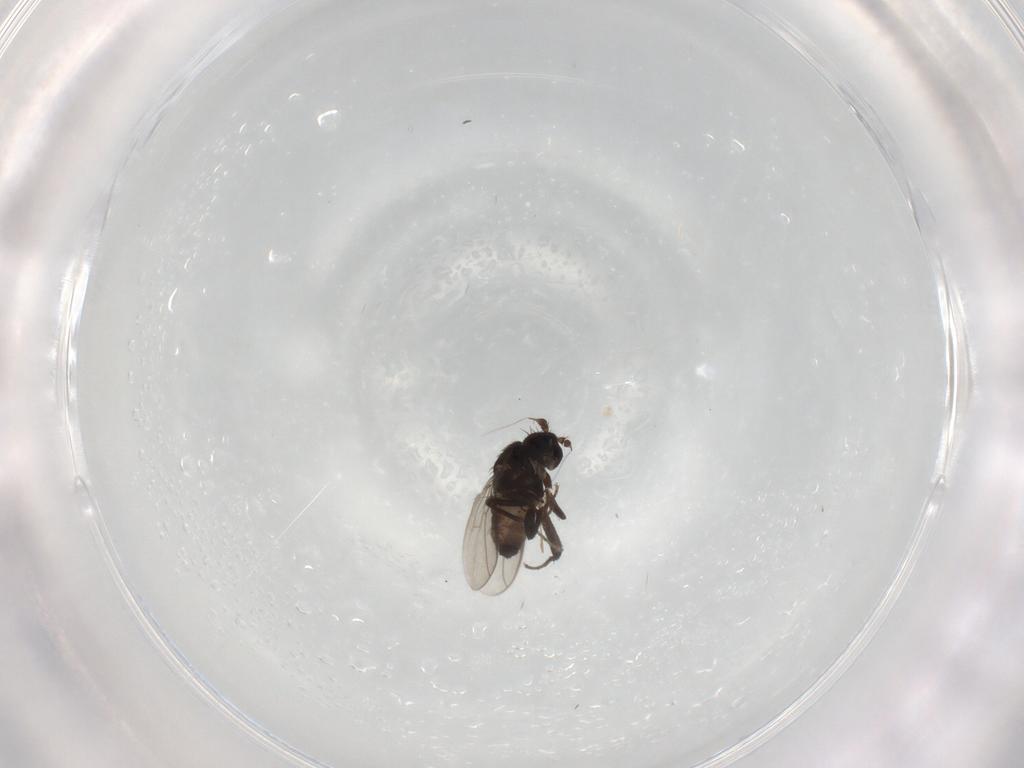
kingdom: Animalia
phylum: Arthropoda
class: Insecta
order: Diptera
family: Sphaeroceridae
